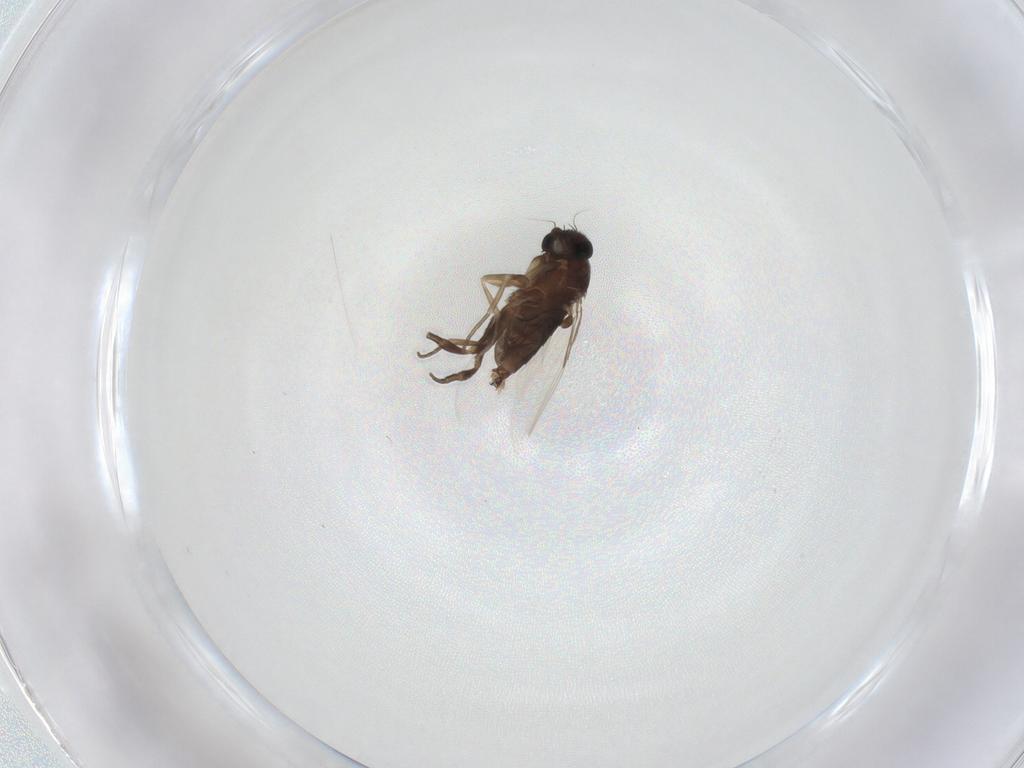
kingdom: Animalia
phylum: Arthropoda
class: Insecta
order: Diptera
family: Phoridae
